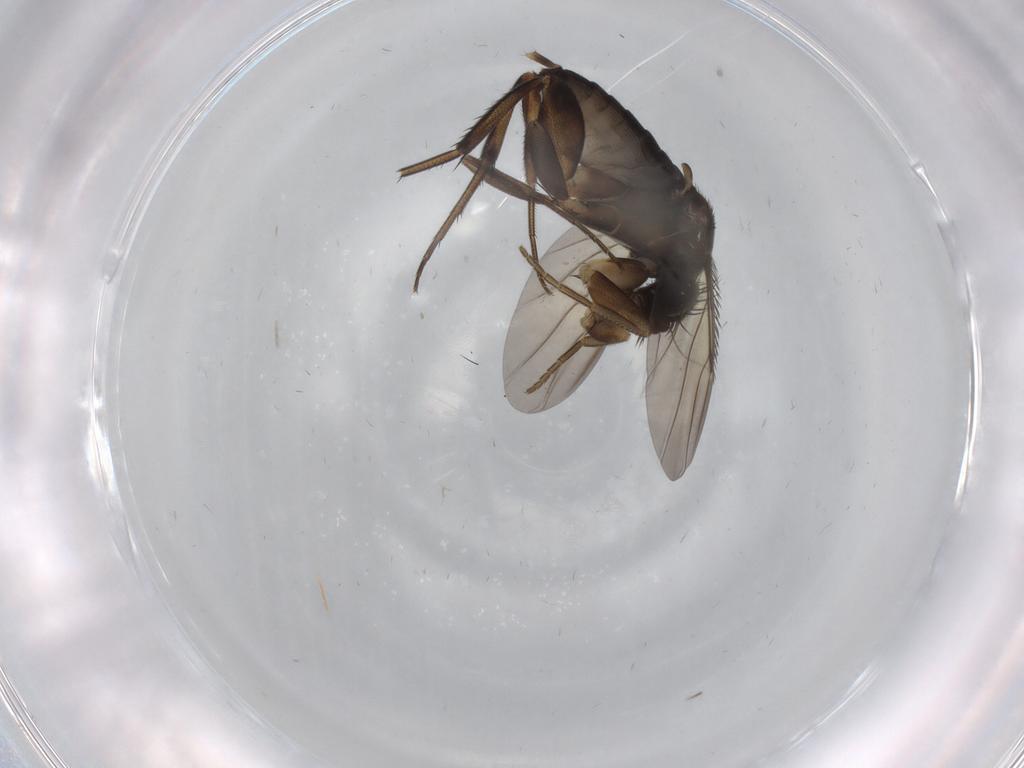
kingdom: Animalia
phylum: Arthropoda
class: Insecta
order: Diptera
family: Phoridae
